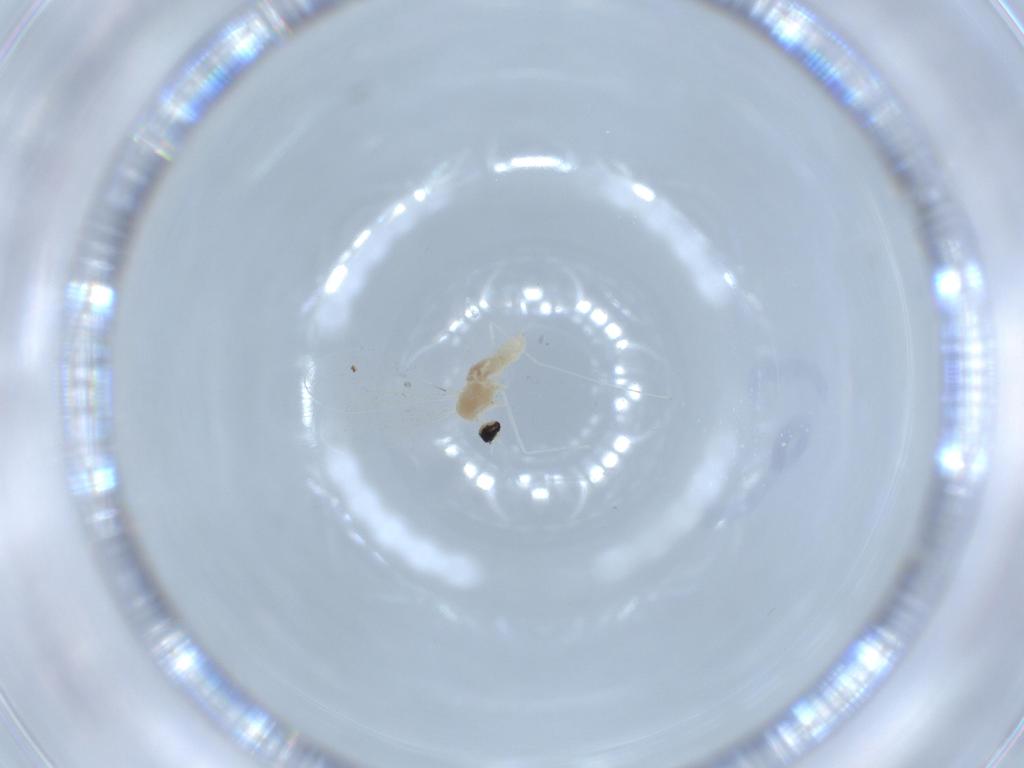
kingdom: Animalia
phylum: Arthropoda
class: Insecta
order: Diptera
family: Cecidomyiidae
